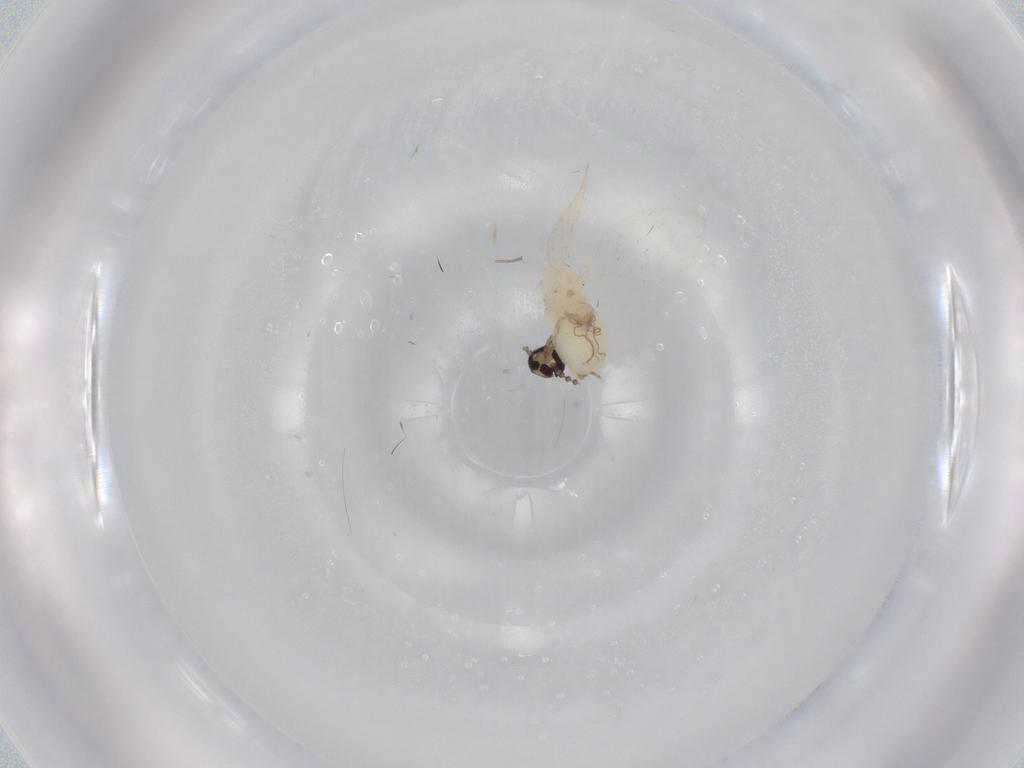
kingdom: Animalia
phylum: Arthropoda
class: Insecta
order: Diptera
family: Psychodidae
